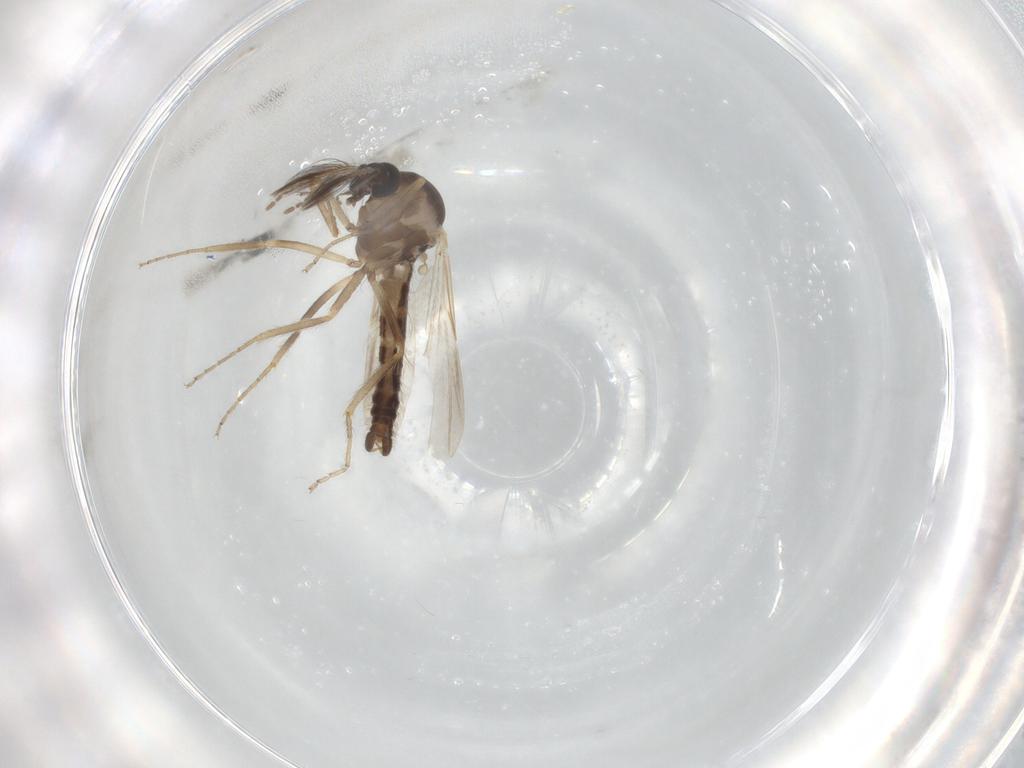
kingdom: Animalia
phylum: Arthropoda
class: Insecta
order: Diptera
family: Ceratopogonidae
